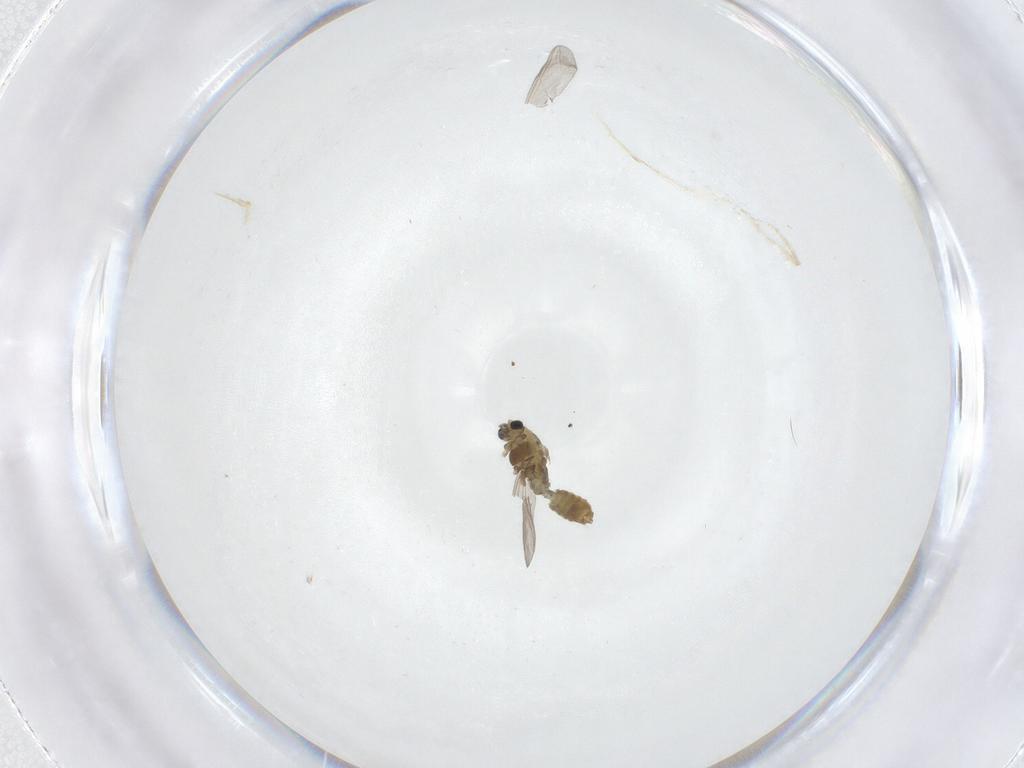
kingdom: Animalia
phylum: Arthropoda
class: Insecta
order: Diptera
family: Chironomidae
